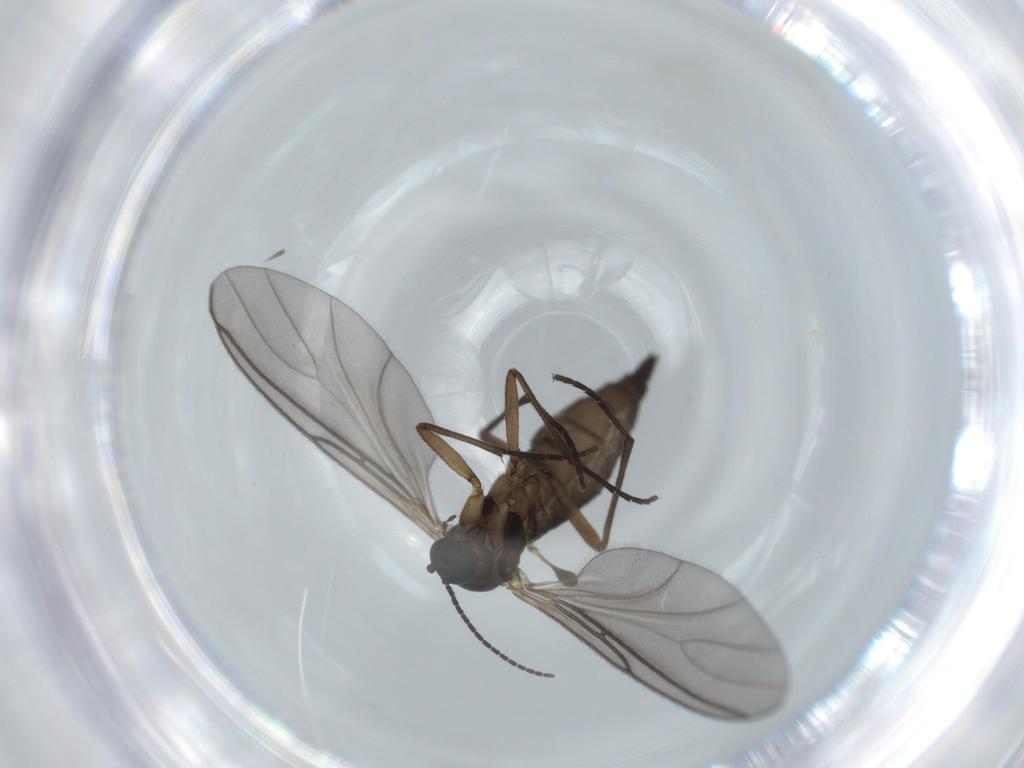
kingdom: Animalia
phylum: Arthropoda
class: Insecta
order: Diptera
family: Sciaridae
